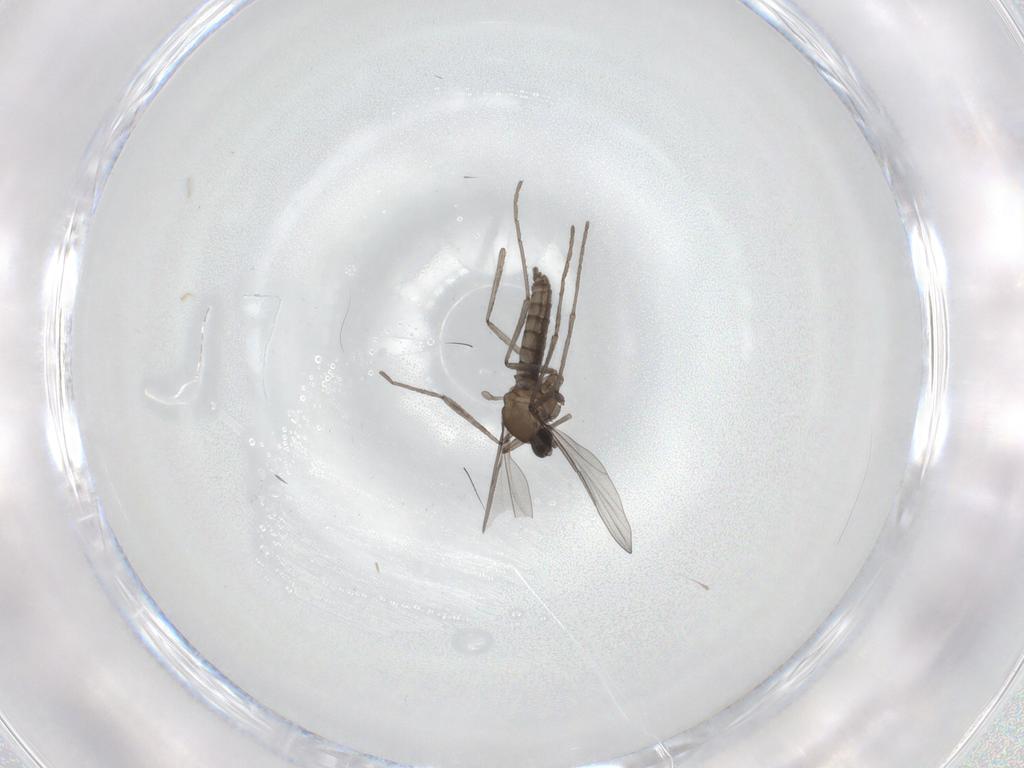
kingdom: Animalia
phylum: Arthropoda
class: Insecta
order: Diptera
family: Cecidomyiidae
